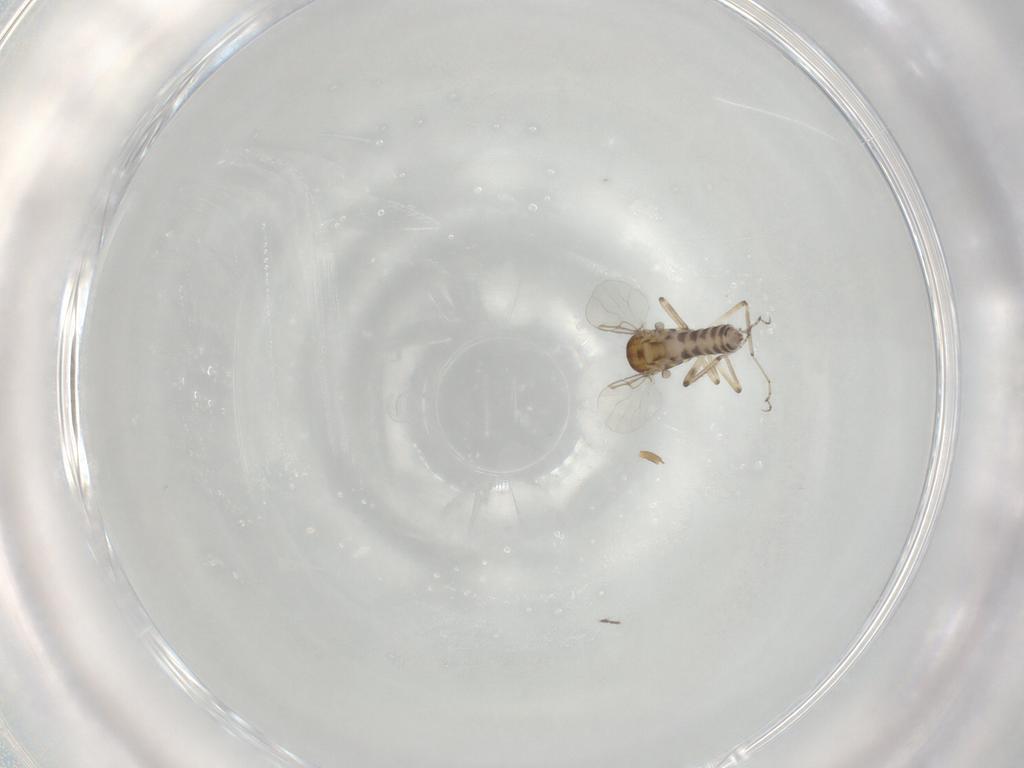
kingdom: Animalia
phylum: Arthropoda
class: Insecta
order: Diptera
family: Ceratopogonidae
